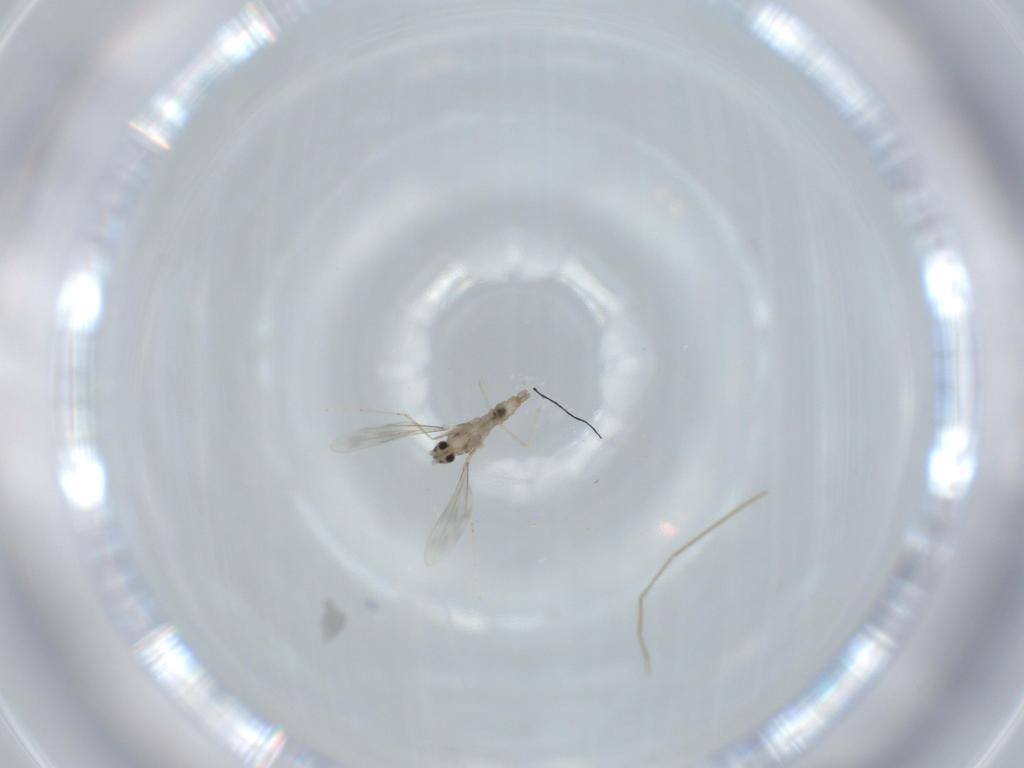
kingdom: Animalia
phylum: Arthropoda
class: Insecta
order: Diptera
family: Cecidomyiidae
